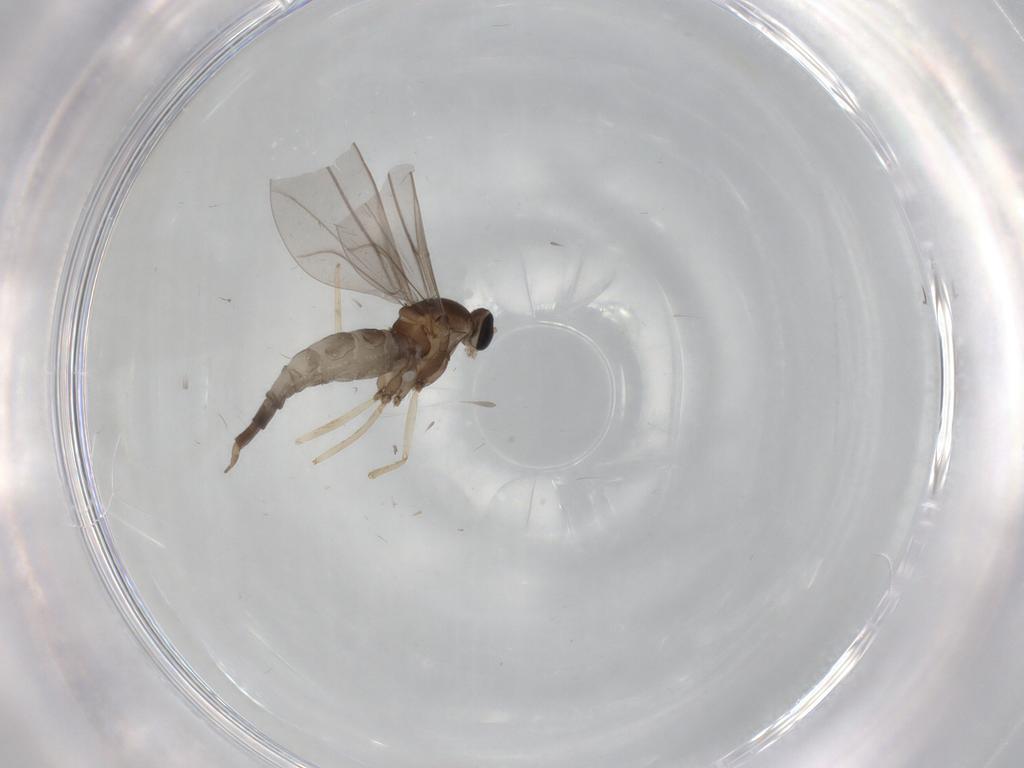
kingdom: Animalia
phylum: Arthropoda
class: Insecta
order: Diptera
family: Cecidomyiidae
